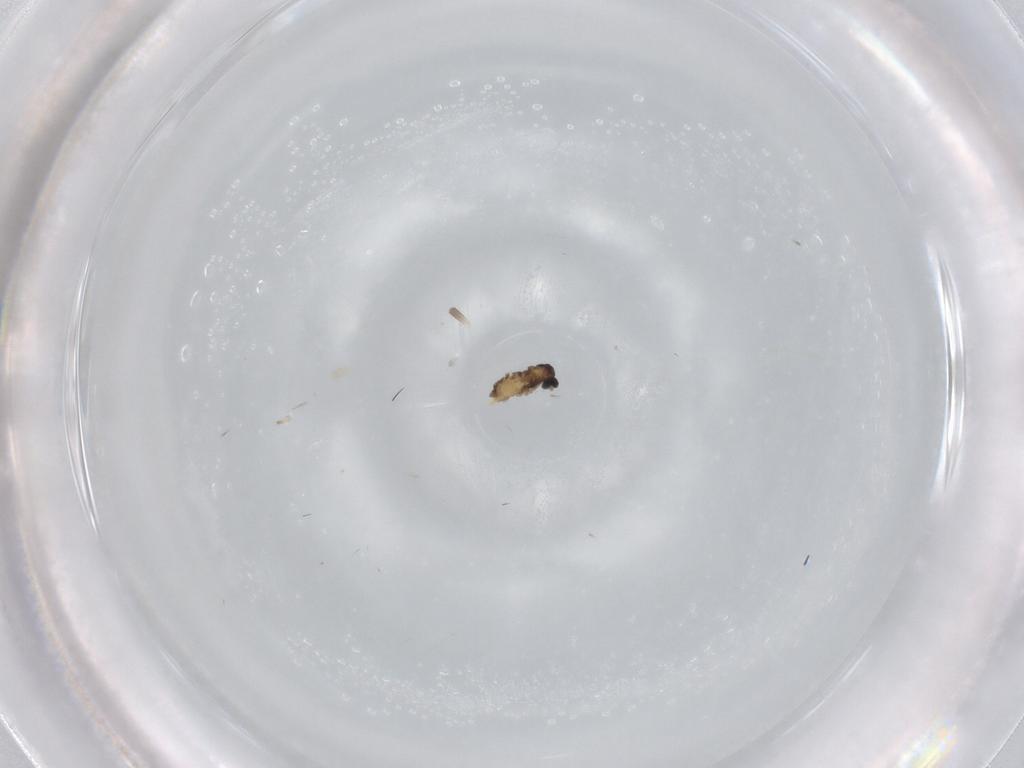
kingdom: Animalia
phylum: Arthropoda
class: Insecta
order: Diptera
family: Cecidomyiidae
